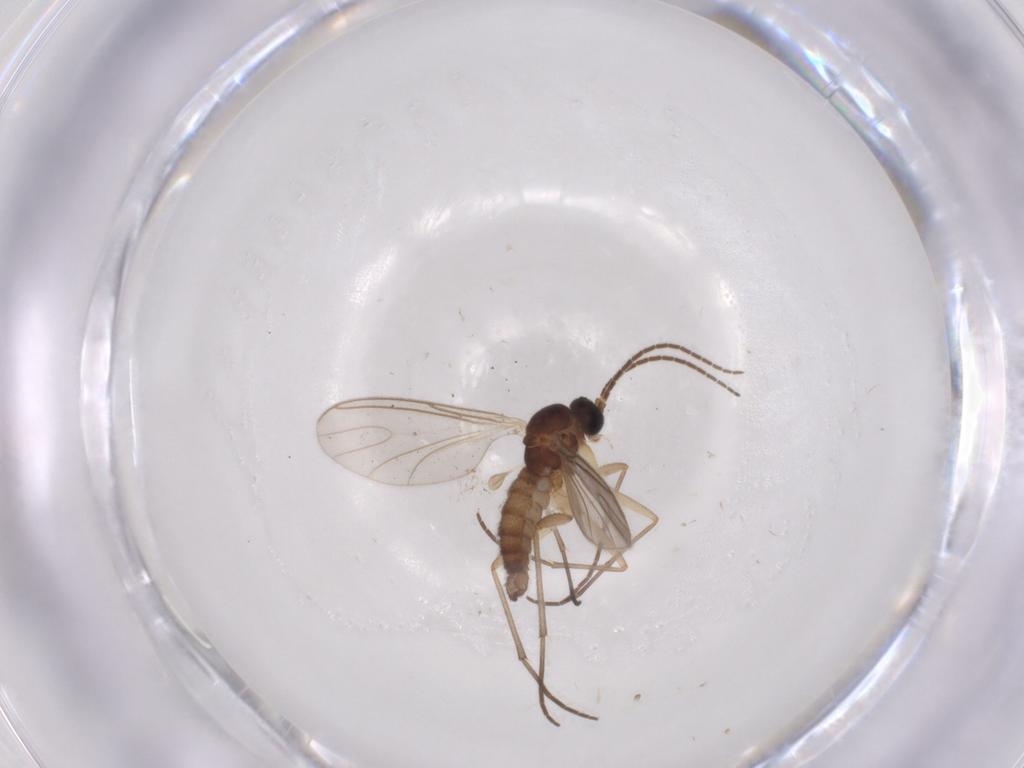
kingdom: Animalia
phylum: Arthropoda
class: Insecta
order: Diptera
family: Sciaridae
